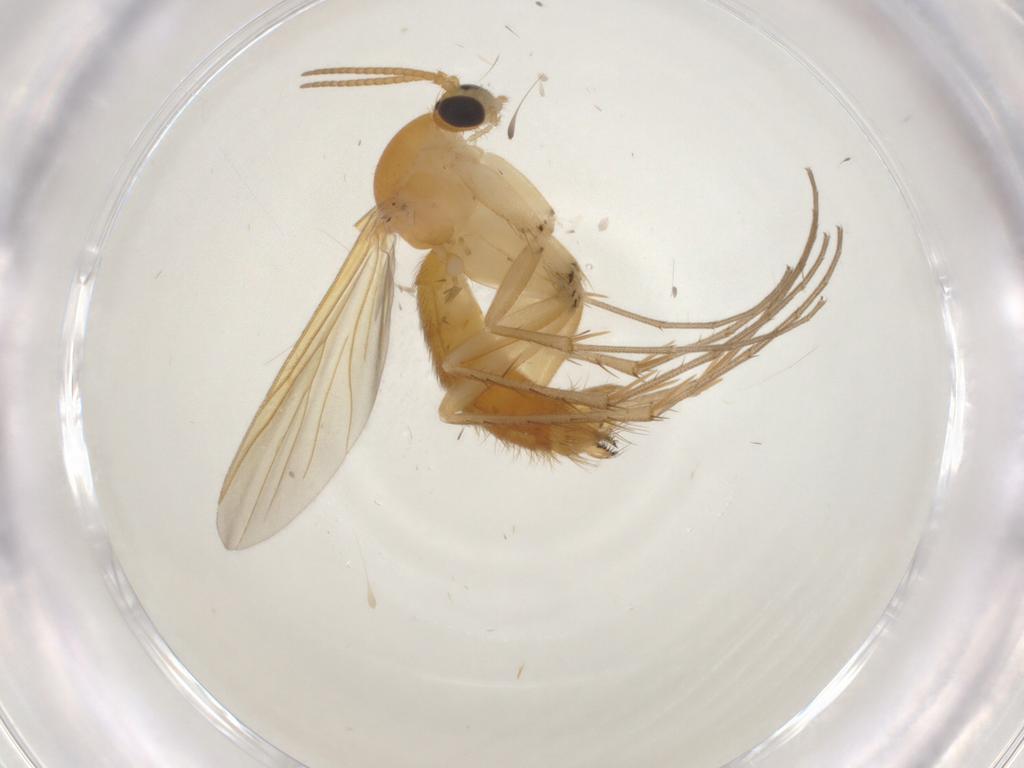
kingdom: Animalia
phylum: Arthropoda
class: Insecta
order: Diptera
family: Mycetophilidae
